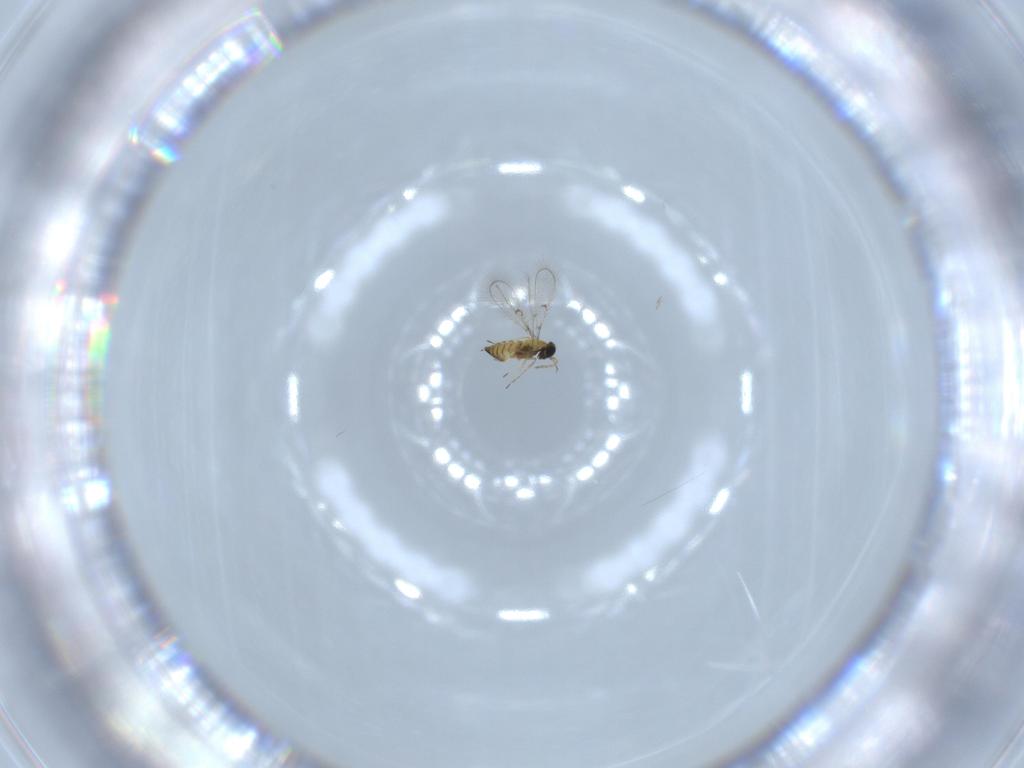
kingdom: Animalia
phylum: Arthropoda
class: Insecta
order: Hymenoptera
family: Trichogrammatidae
